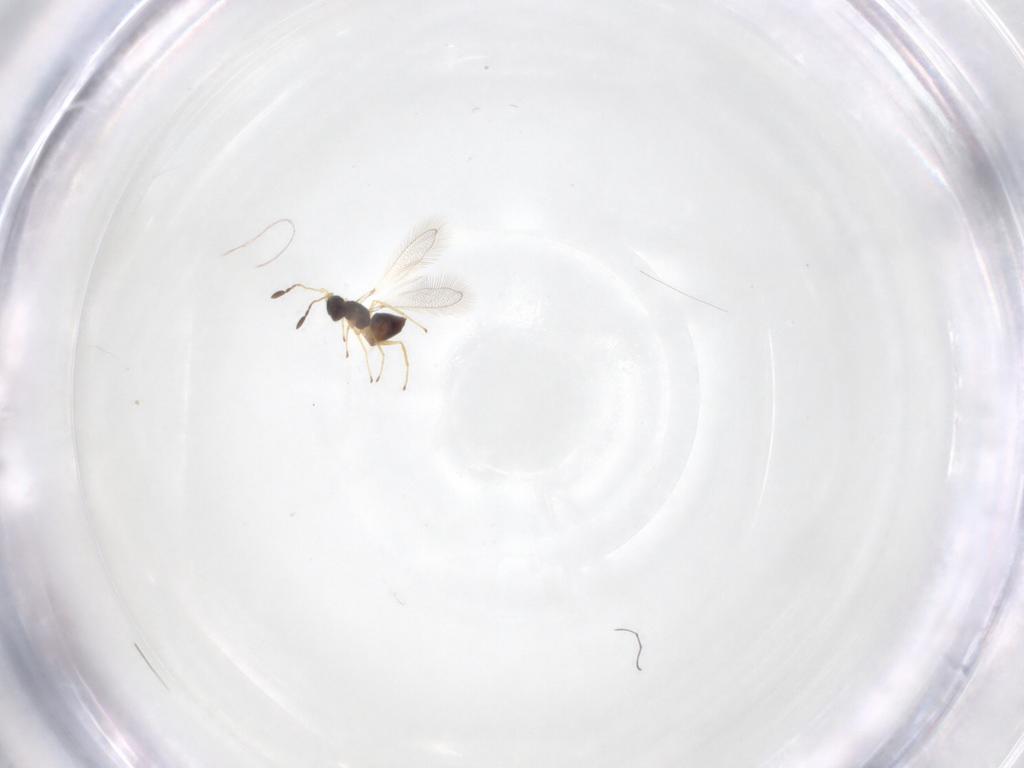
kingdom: Animalia
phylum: Arthropoda
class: Insecta
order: Hymenoptera
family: Mymaridae
